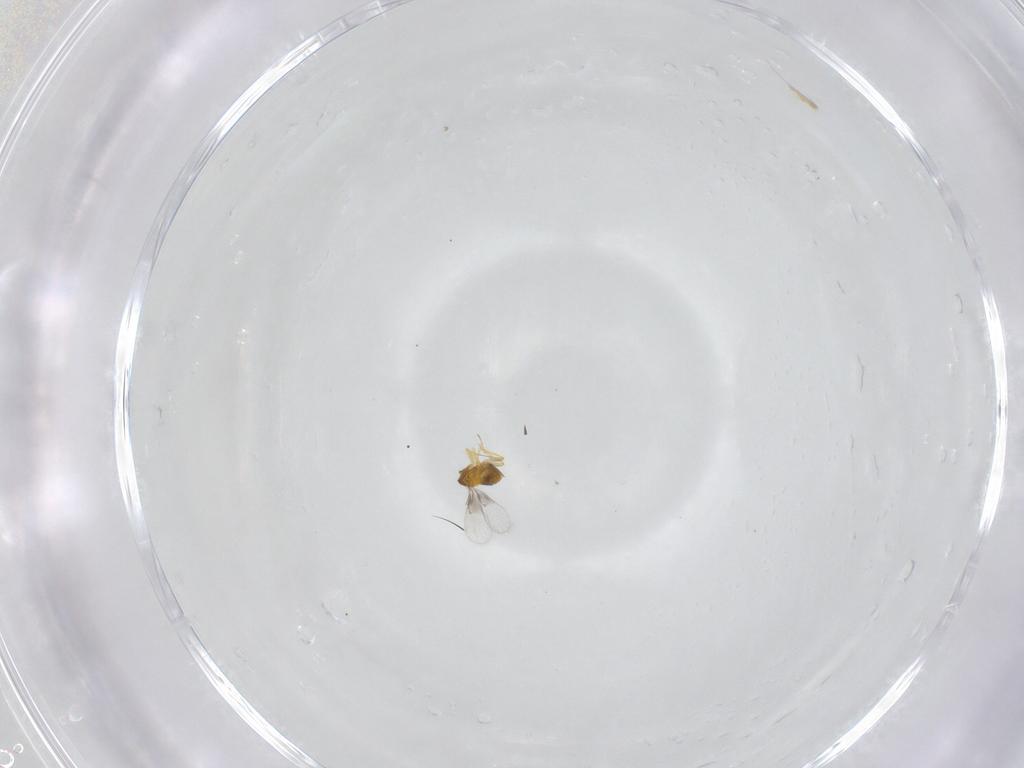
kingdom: Animalia
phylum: Arthropoda
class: Insecta
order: Hymenoptera
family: Trichogrammatidae
